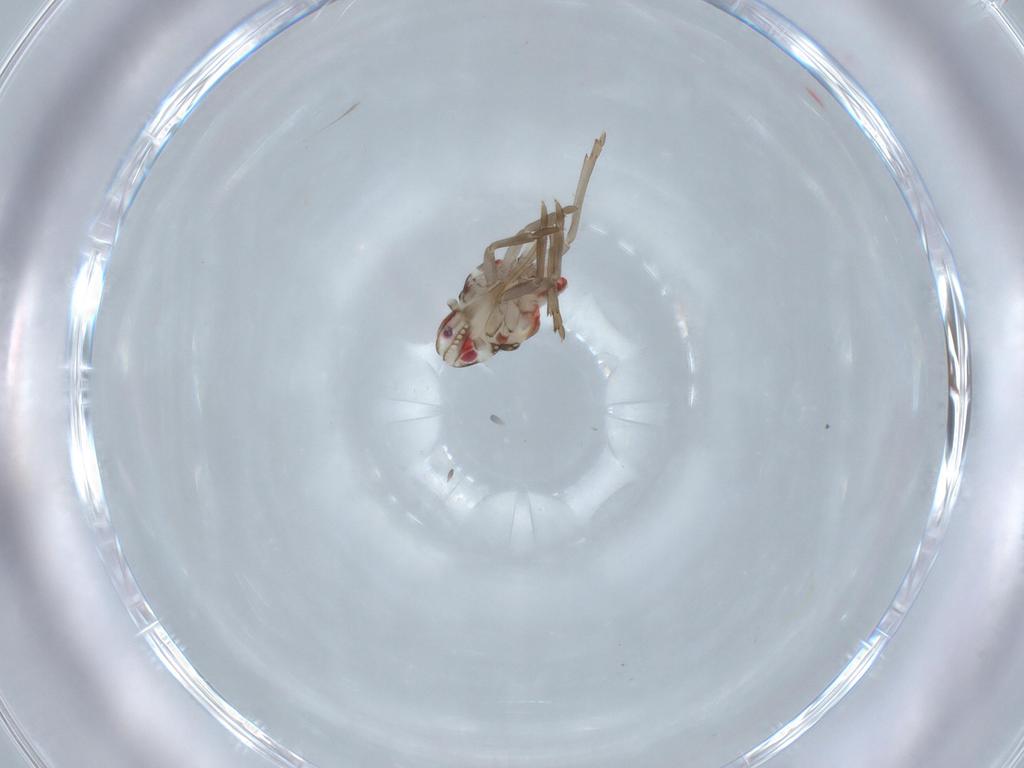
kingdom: Animalia
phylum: Arthropoda
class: Insecta
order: Hemiptera
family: Nogodinidae
